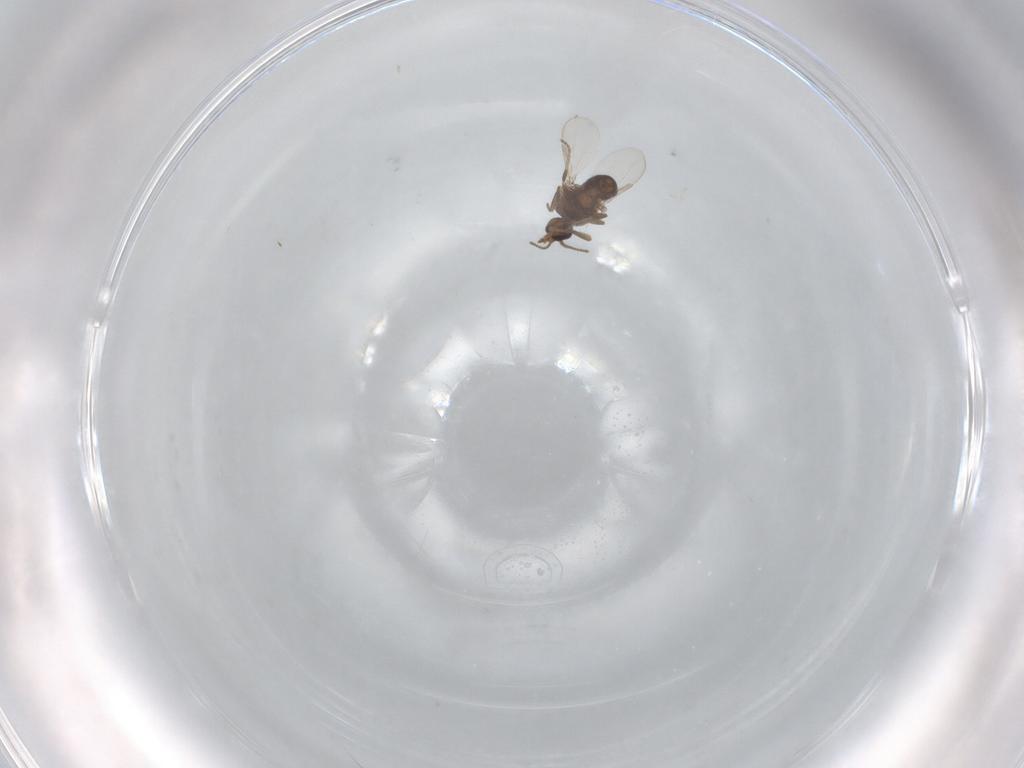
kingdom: Animalia
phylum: Arthropoda
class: Insecta
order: Diptera
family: Ceratopogonidae
